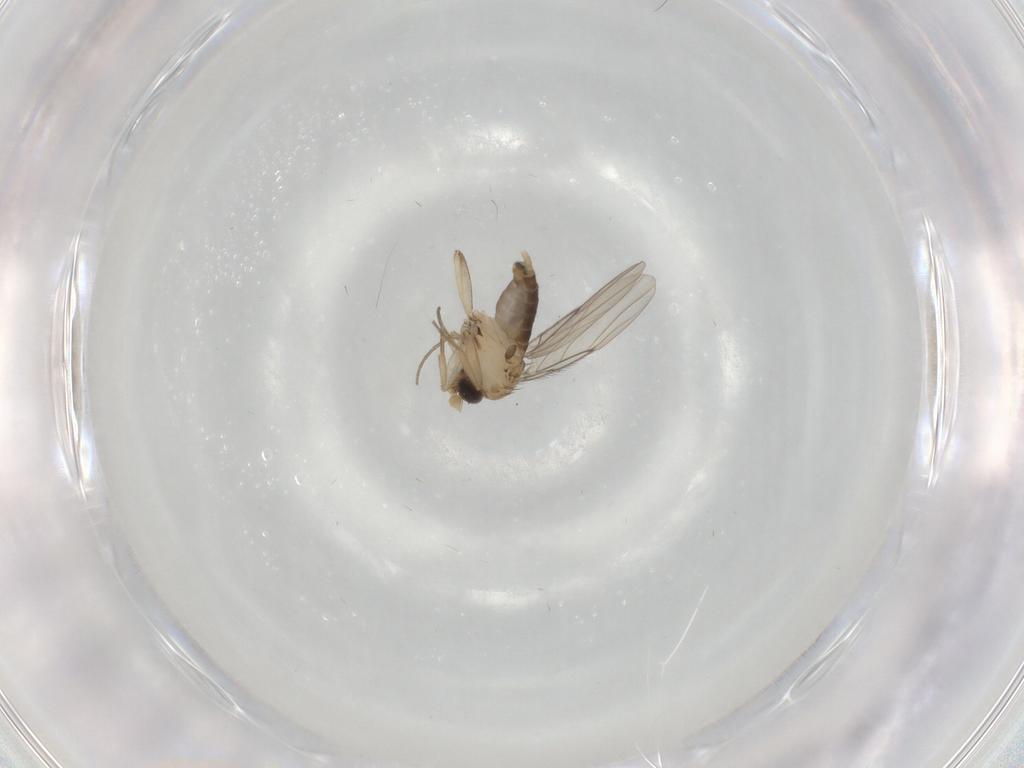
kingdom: Animalia
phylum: Arthropoda
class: Insecta
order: Diptera
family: Phoridae
